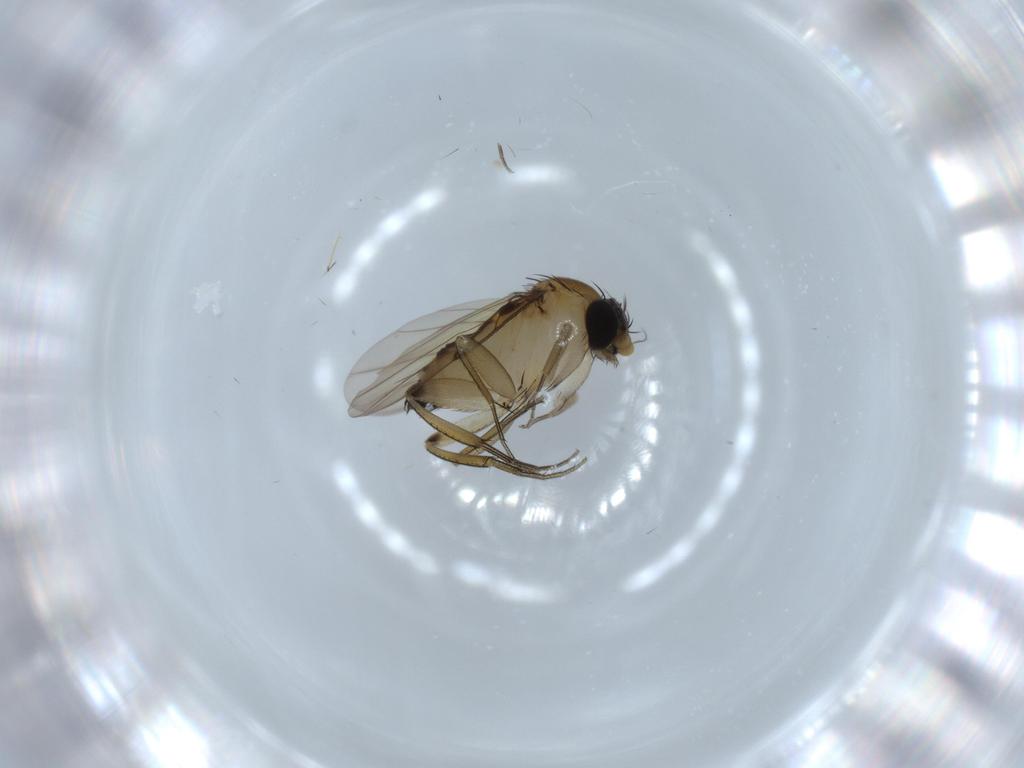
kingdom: Animalia
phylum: Arthropoda
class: Insecta
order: Diptera
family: Phoridae
